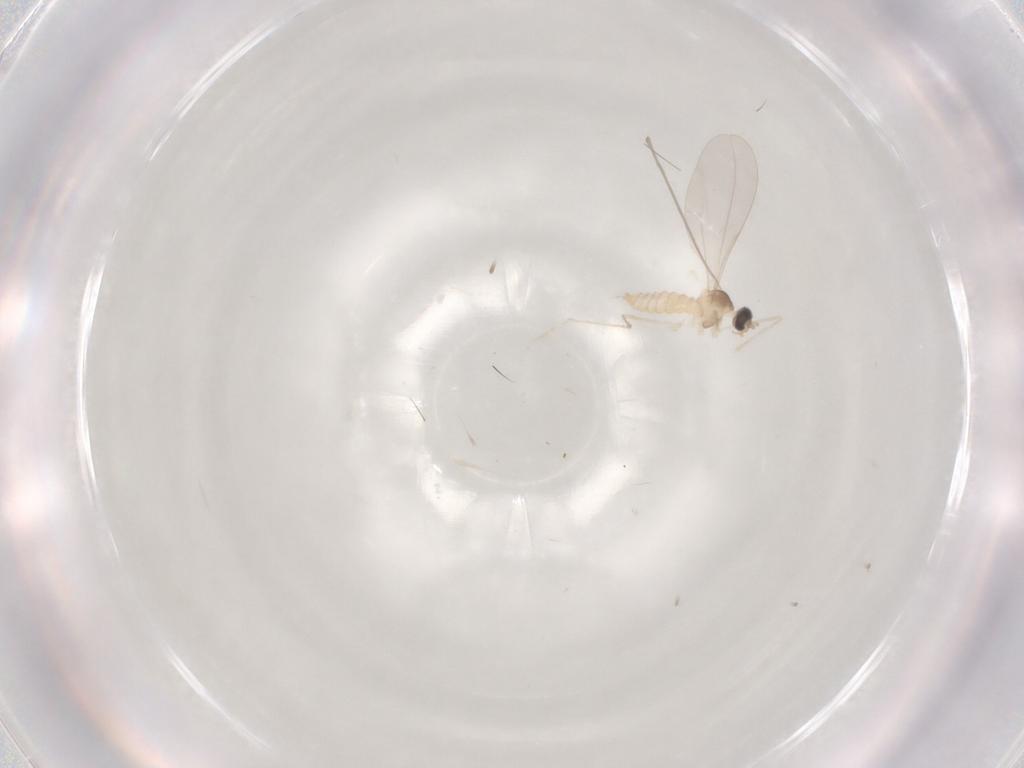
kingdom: Animalia
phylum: Arthropoda
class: Insecta
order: Diptera
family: Cecidomyiidae
